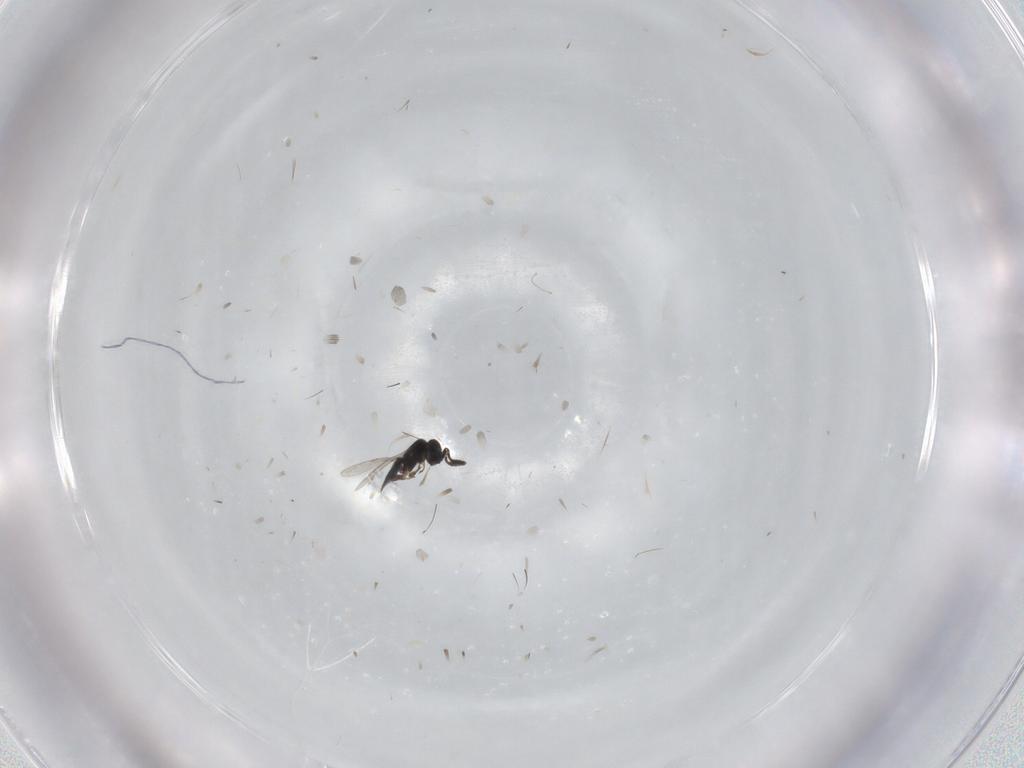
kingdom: Animalia
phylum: Arthropoda
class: Insecta
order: Hymenoptera
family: Scelionidae
